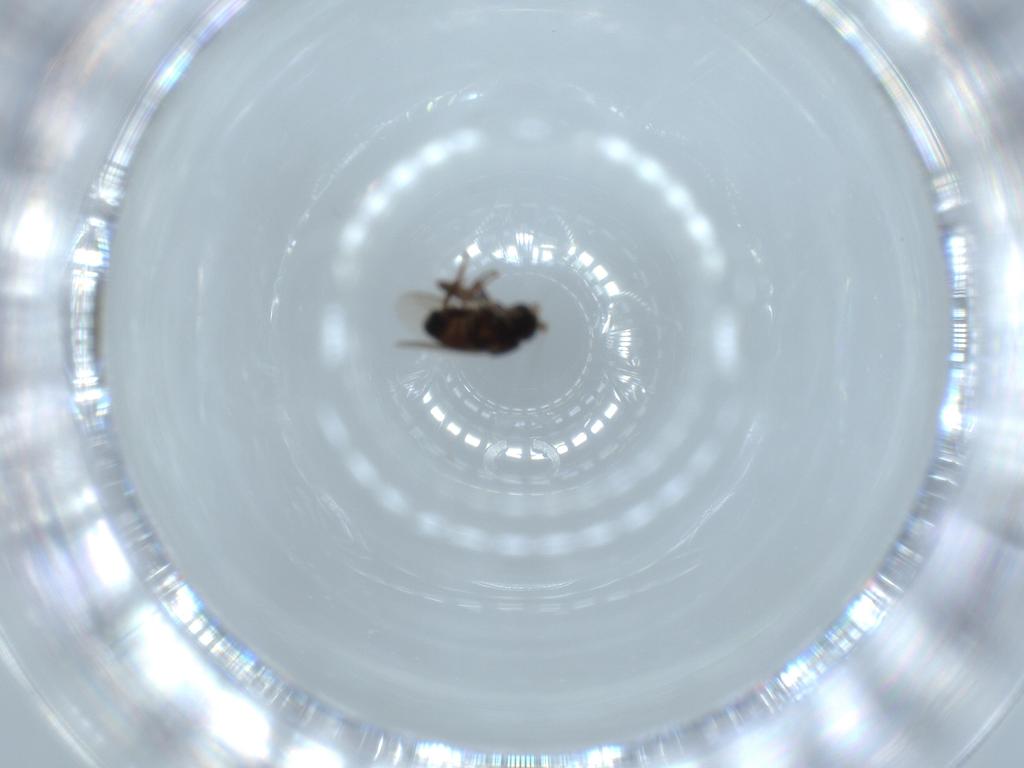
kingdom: Animalia
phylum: Arthropoda
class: Insecta
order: Diptera
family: Sphaeroceridae
